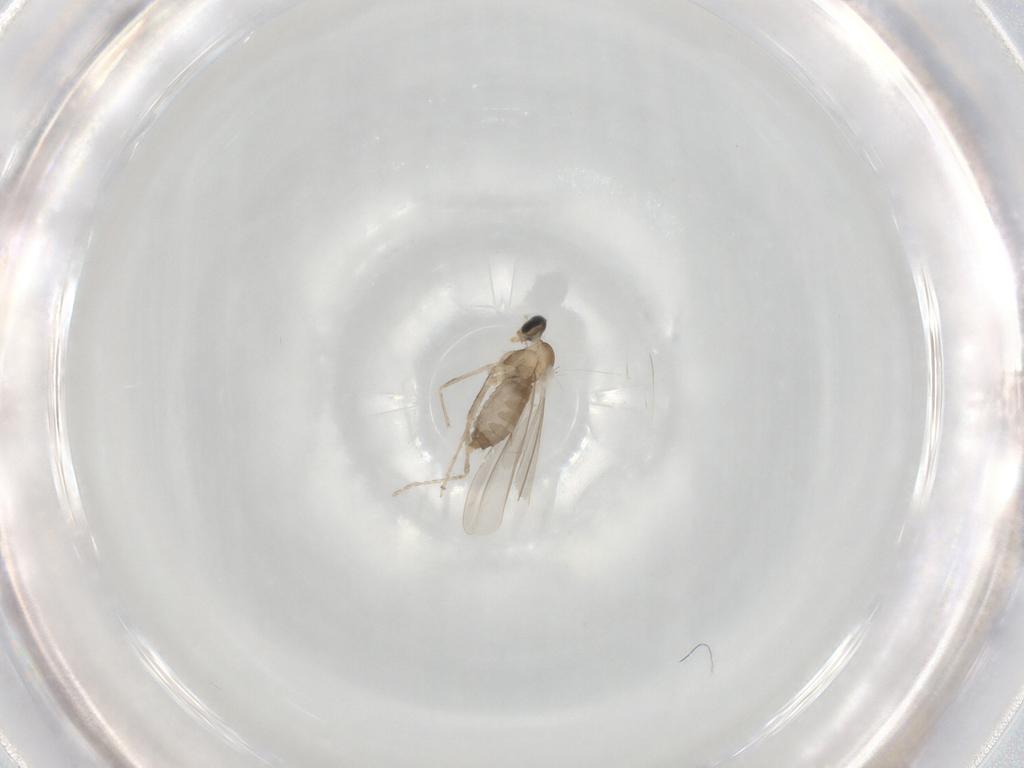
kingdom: Animalia
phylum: Arthropoda
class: Insecta
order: Diptera
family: Cecidomyiidae
